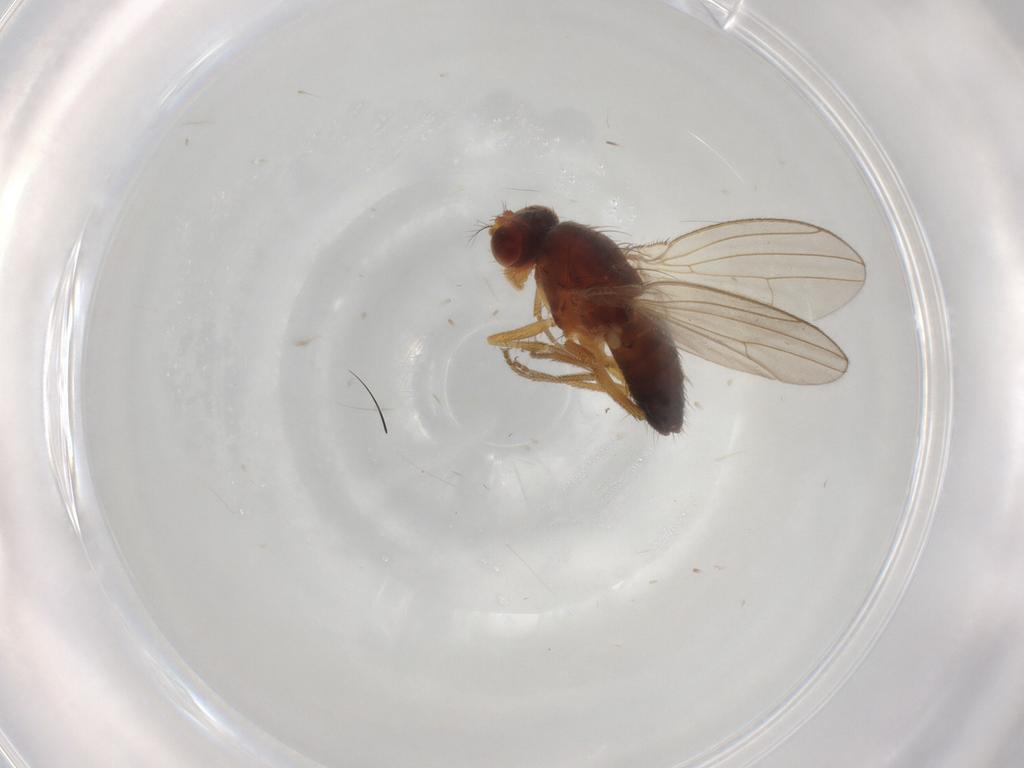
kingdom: Animalia
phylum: Arthropoda
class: Insecta
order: Diptera
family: Drosophilidae
